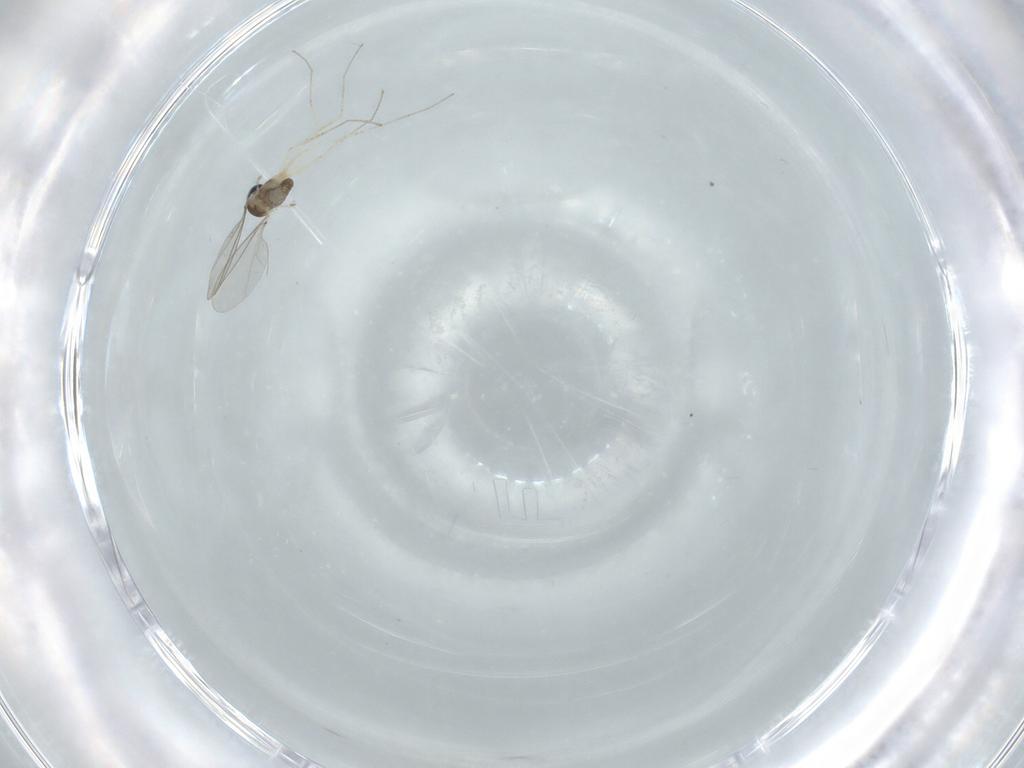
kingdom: Animalia
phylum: Arthropoda
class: Insecta
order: Diptera
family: Cecidomyiidae
